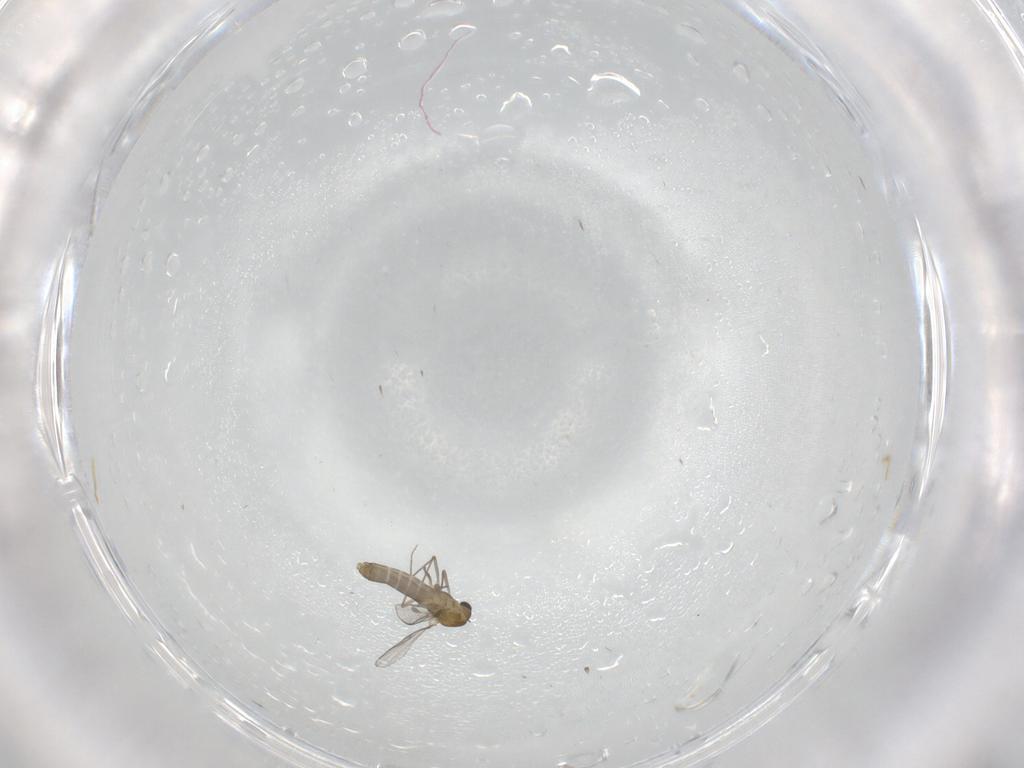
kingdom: Animalia
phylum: Arthropoda
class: Insecta
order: Diptera
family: Chironomidae
